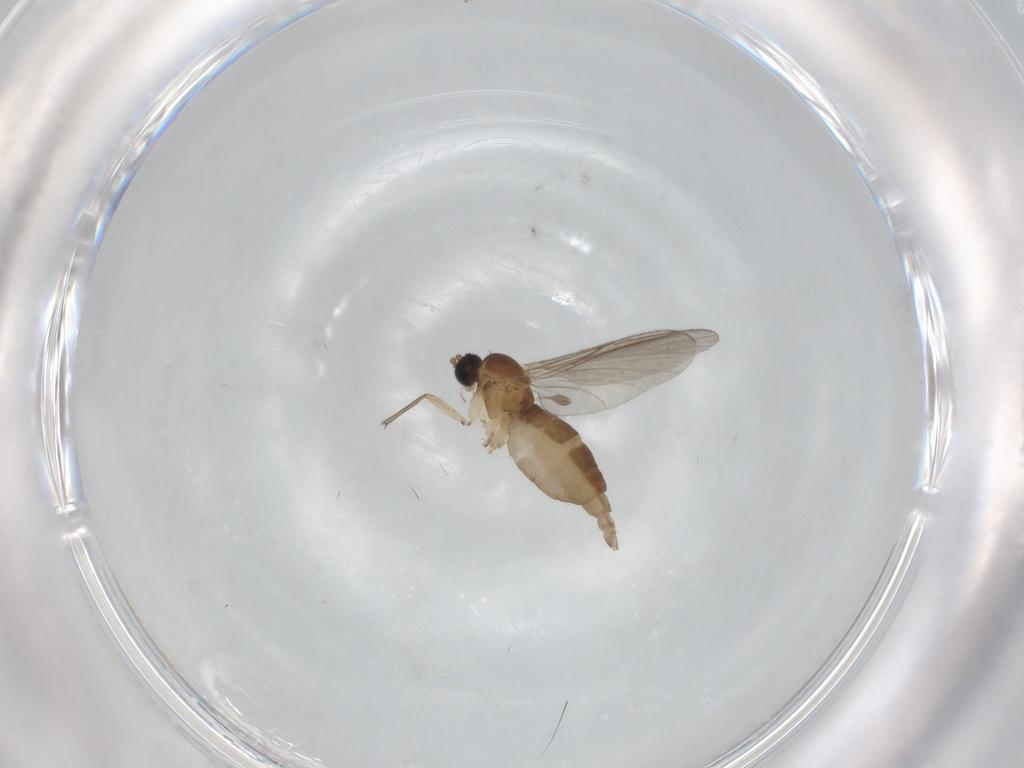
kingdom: Animalia
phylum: Arthropoda
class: Insecta
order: Diptera
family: Sciaridae
